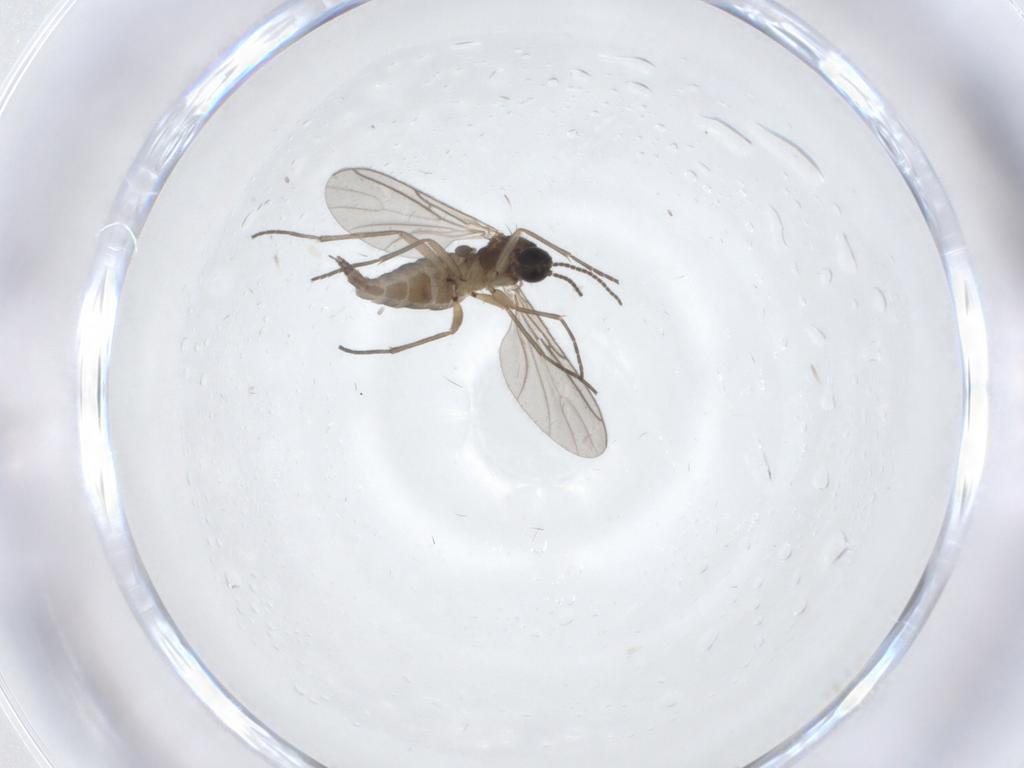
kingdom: Animalia
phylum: Arthropoda
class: Insecta
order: Diptera
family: Sciaridae
